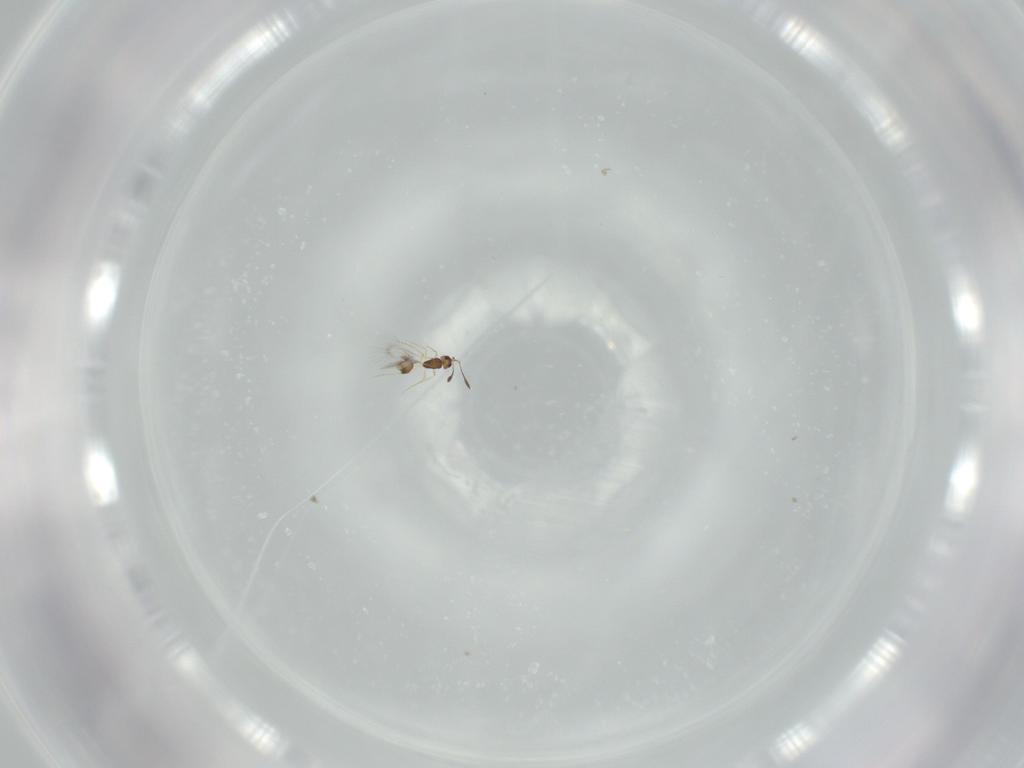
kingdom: Animalia
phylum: Arthropoda
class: Insecta
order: Hymenoptera
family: Mymarommatidae
